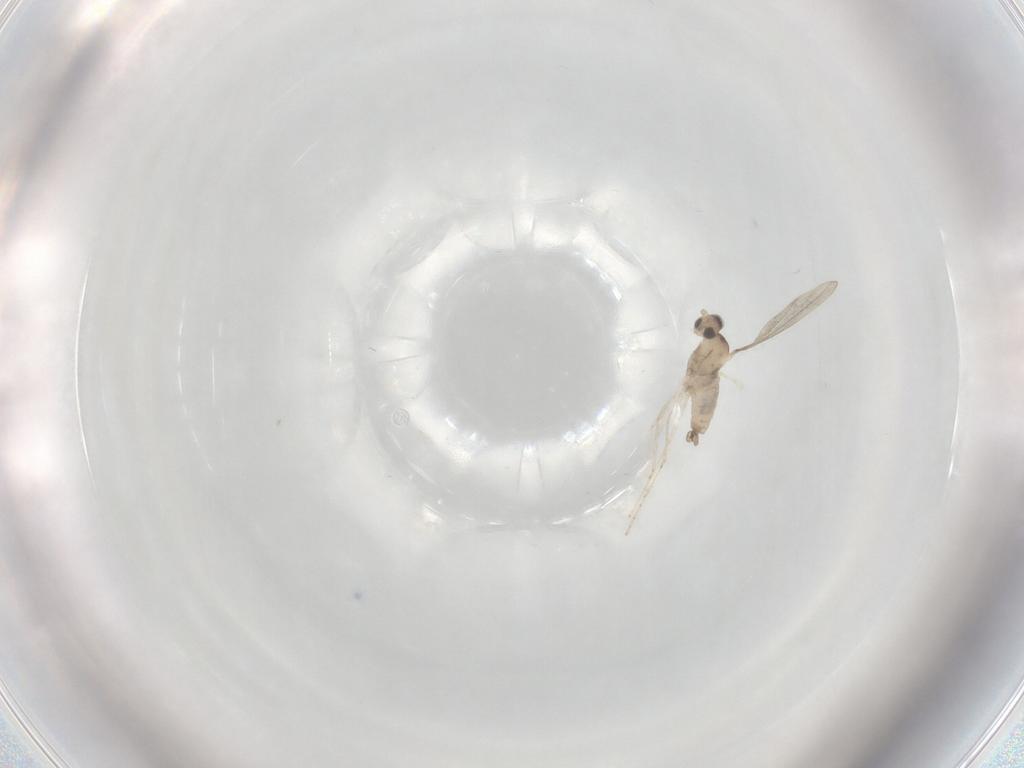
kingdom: Animalia
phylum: Arthropoda
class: Insecta
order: Diptera
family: Cecidomyiidae
